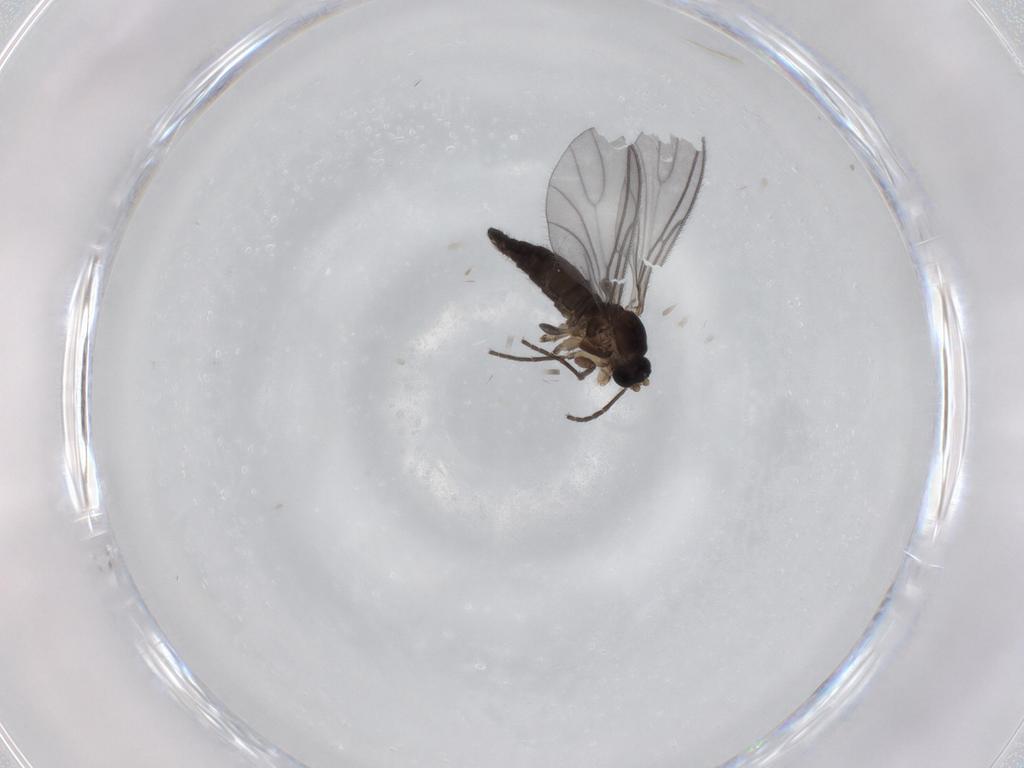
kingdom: Animalia
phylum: Arthropoda
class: Insecta
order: Diptera
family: Sciaridae
